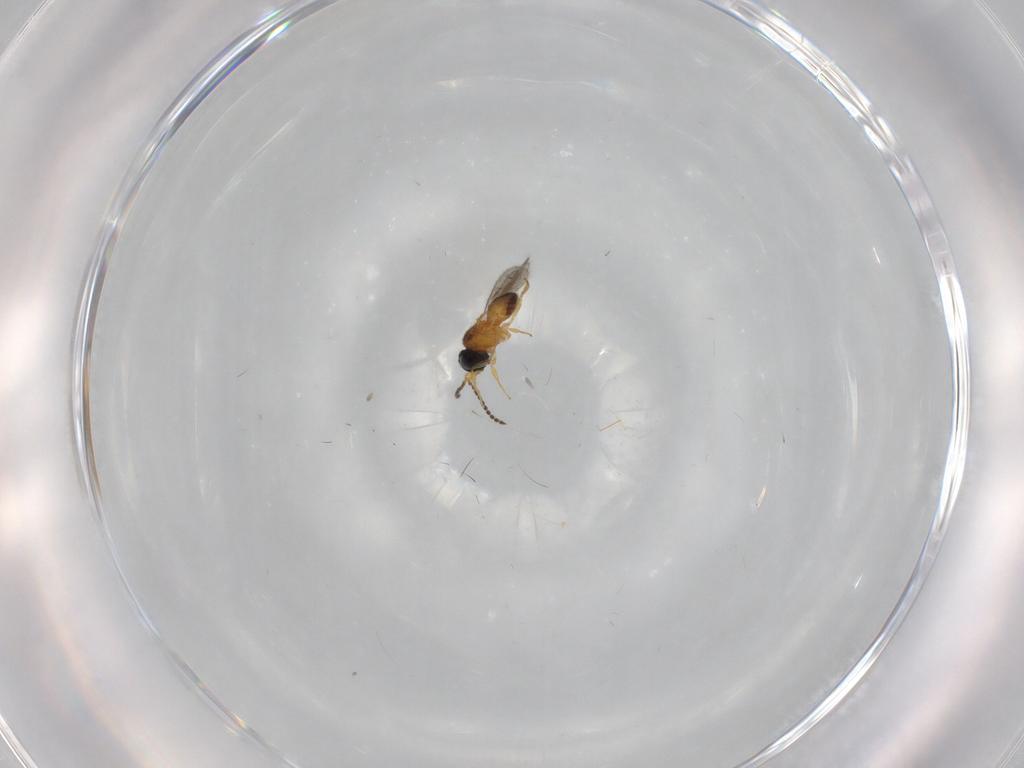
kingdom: Animalia
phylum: Arthropoda
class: Insecta
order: Hymenoptera
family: Scelionidae
